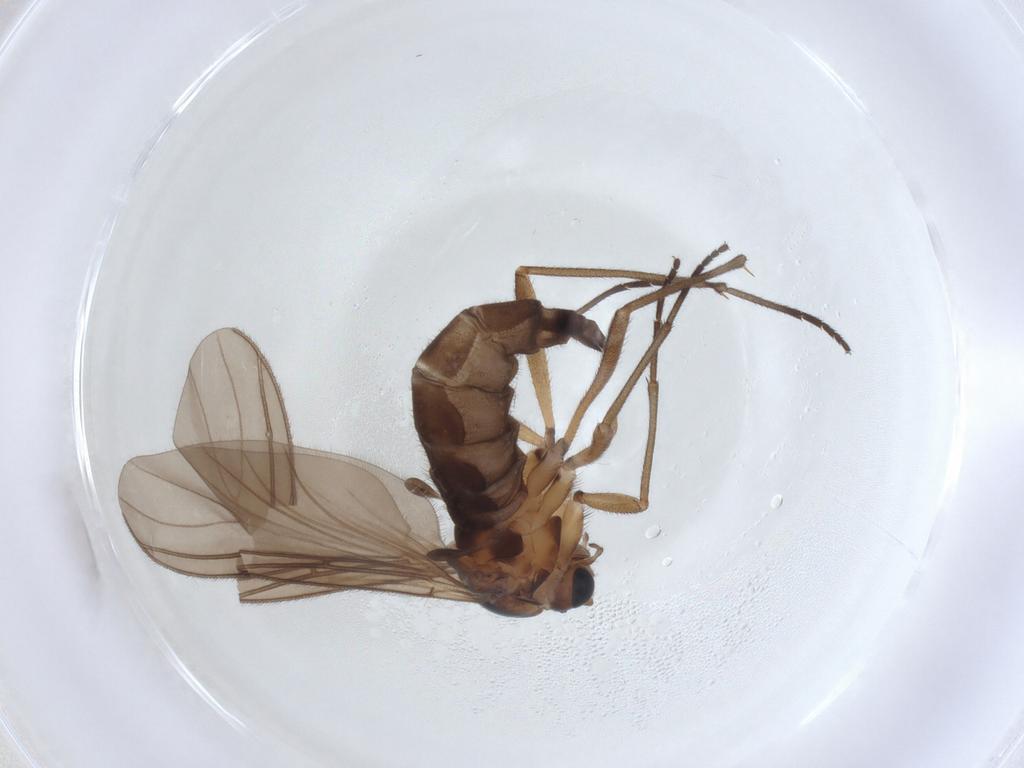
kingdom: Animalia
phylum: Arthropoda
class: Insecta
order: Diptera
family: Sciaridae
